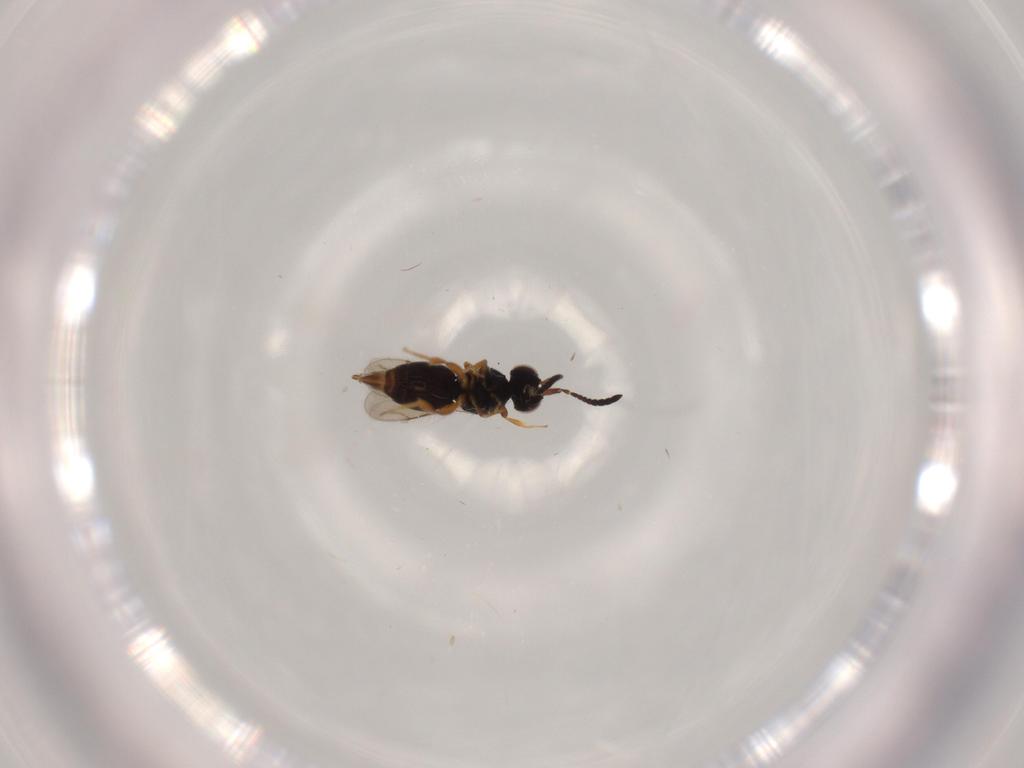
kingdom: Animalia
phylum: Arthropoda
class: Insecta
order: Hymenoptera
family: Ceraphronidae
